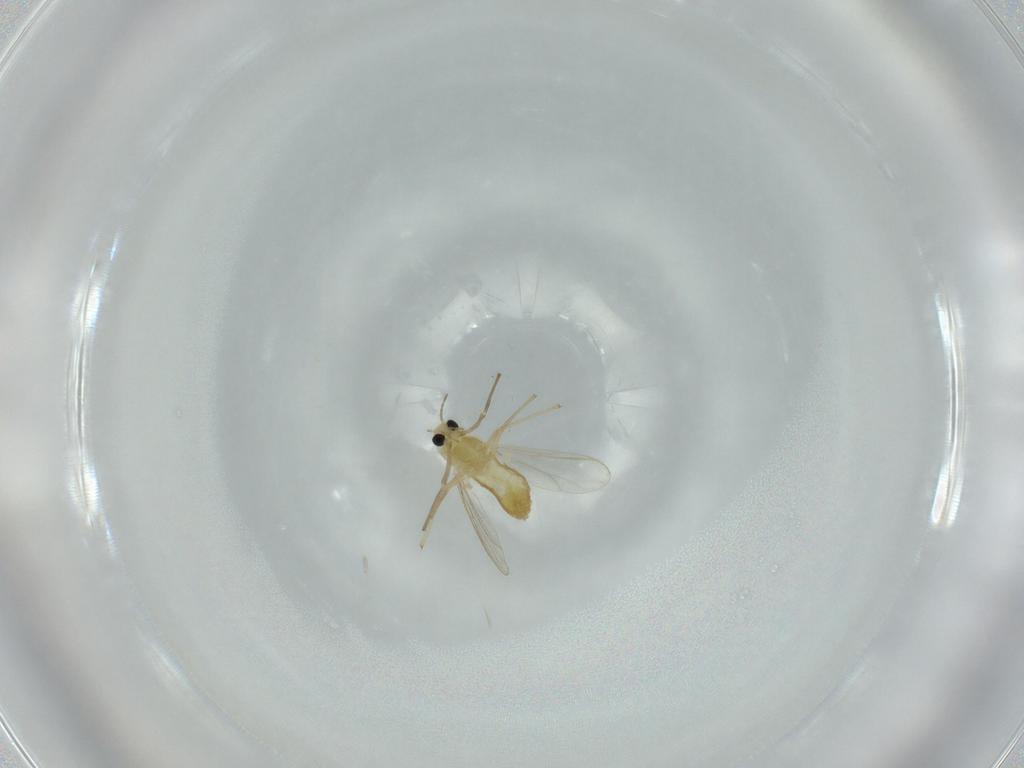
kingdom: Animalia
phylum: Arthropoda
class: Insecta
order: Diptera
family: Chironomidae
